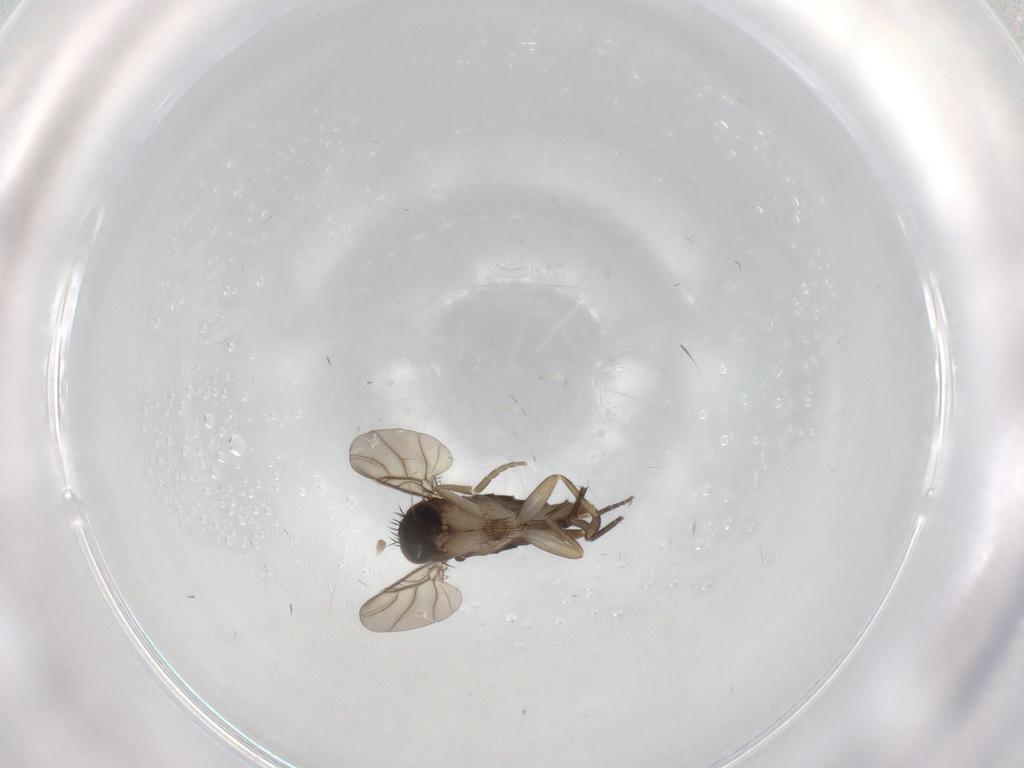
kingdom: Animalia
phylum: Arthropoda
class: Insecta
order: Diptera
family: Phoridae
